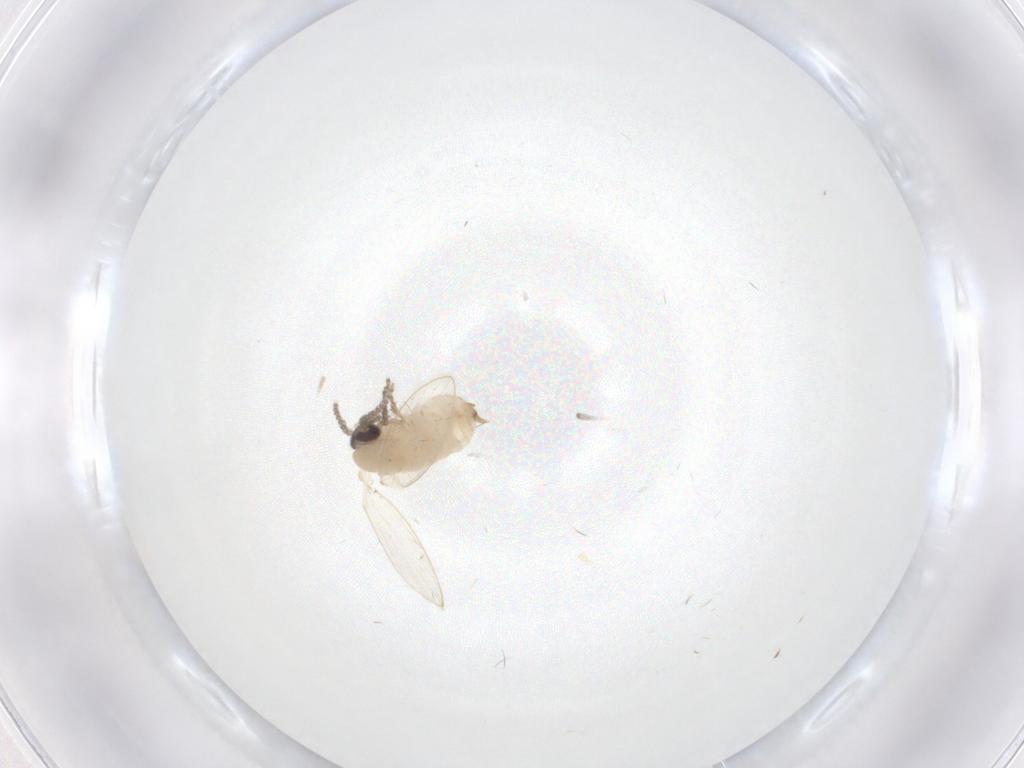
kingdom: Animalia
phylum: Arthropoda
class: Insecta
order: Diptera
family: Psychodidae
